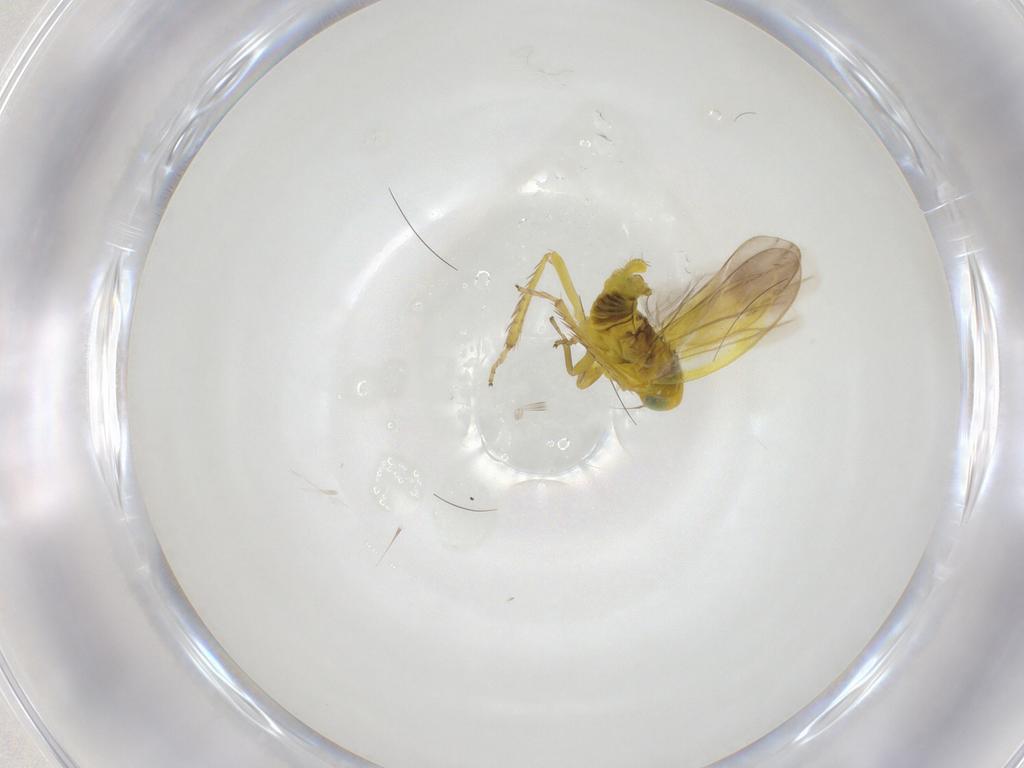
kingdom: Animalia
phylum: Arthropoda
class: Insecta
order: Hemiptera
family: Cicadellidae
